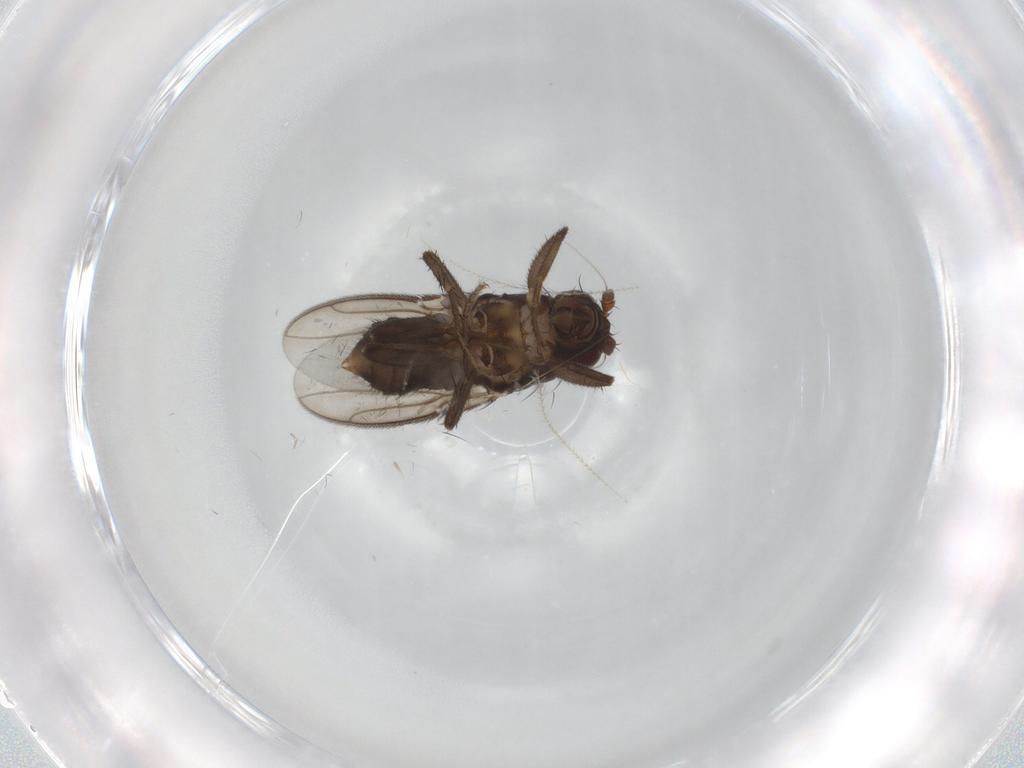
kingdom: Animalia
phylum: Arthropoda
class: Insecta
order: Diptera
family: Sphaeroceridae
